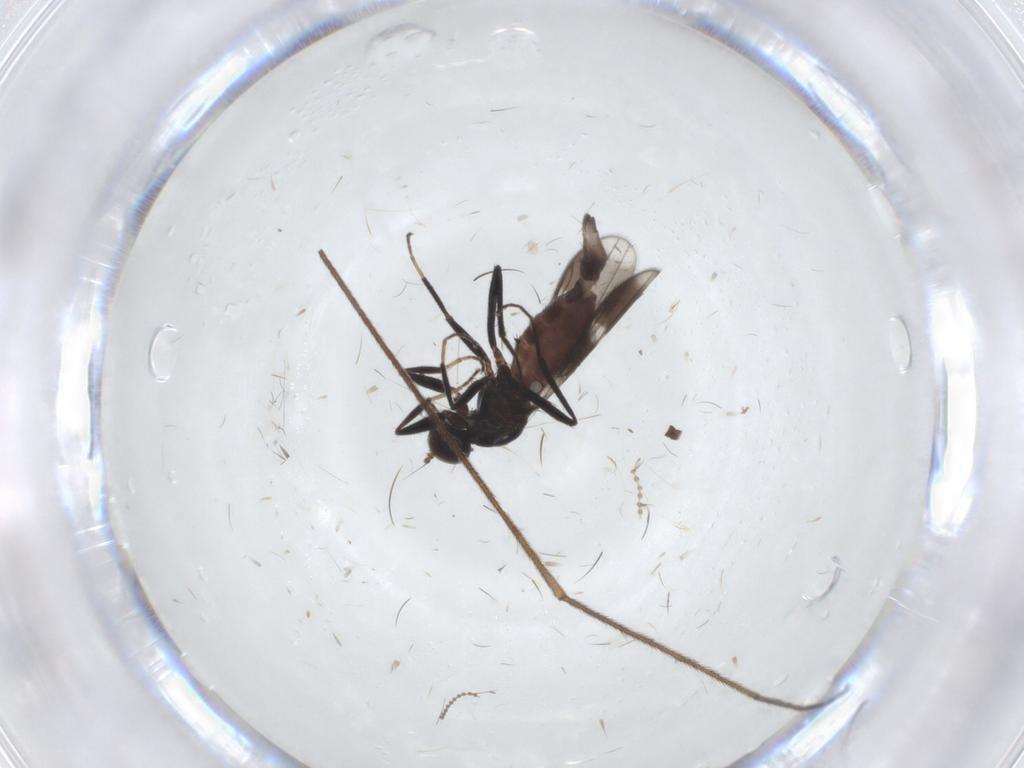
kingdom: Animalia
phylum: Arthropoda
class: Insecta
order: Diptera
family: Hybotidae
